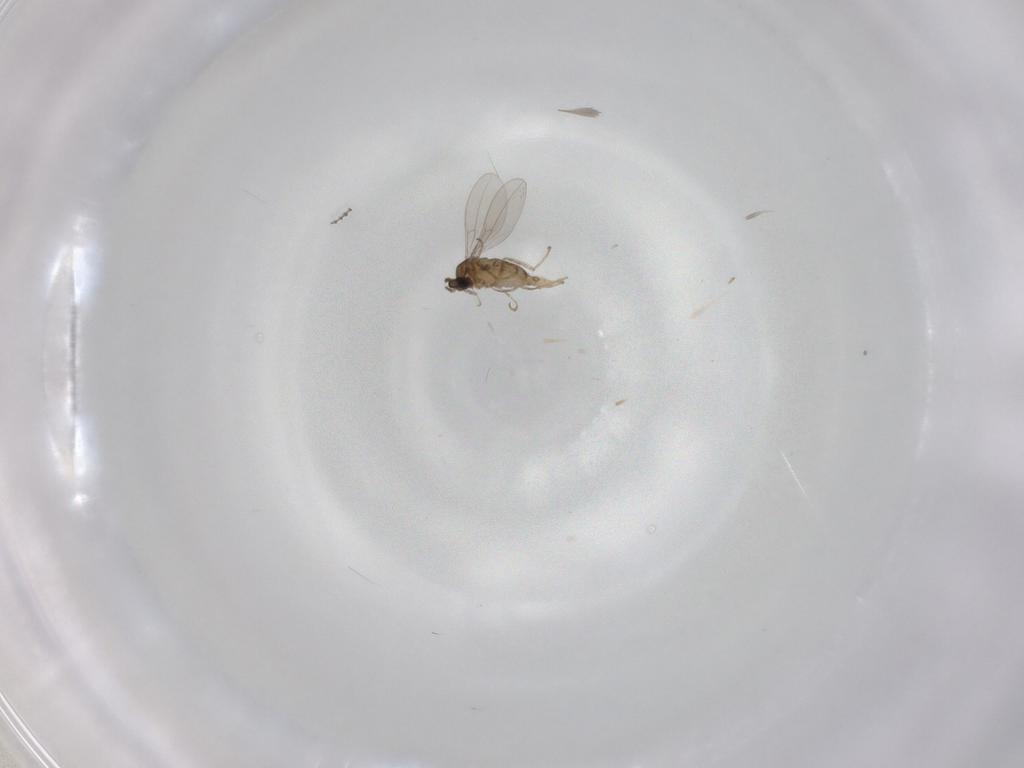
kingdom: Animalia
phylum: Arthropoda
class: Insecta
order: Diptera
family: Cecidomyiidae
